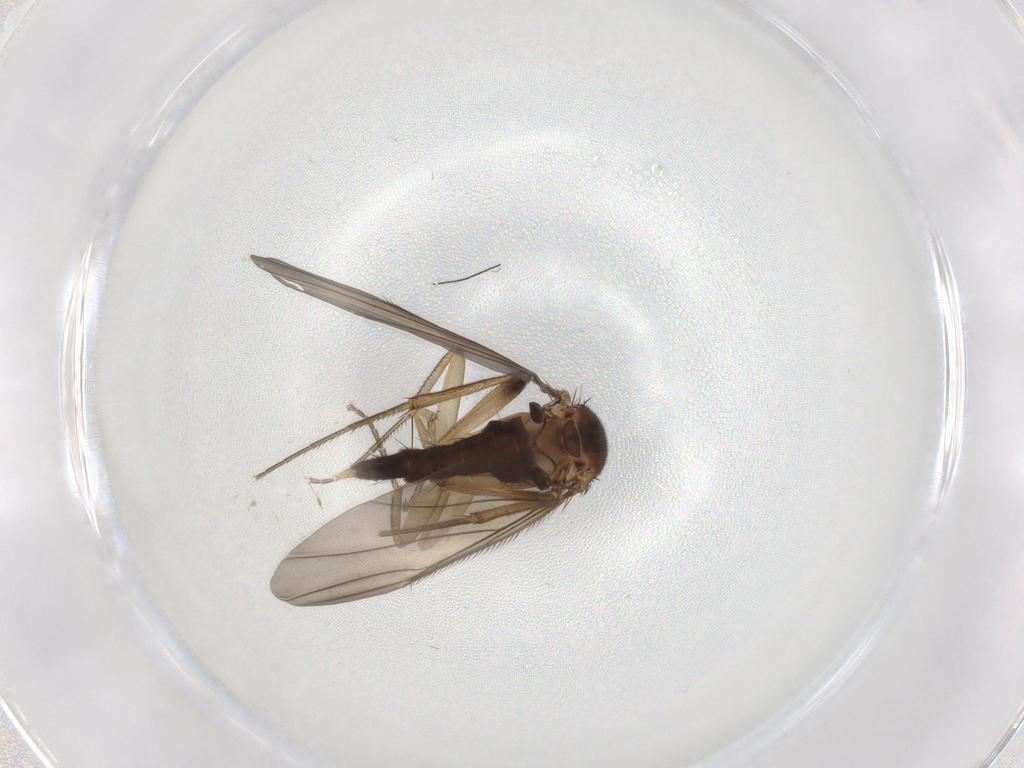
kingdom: Animalia
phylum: Arthropoda
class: Insecta
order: Diptera
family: Phoridae
